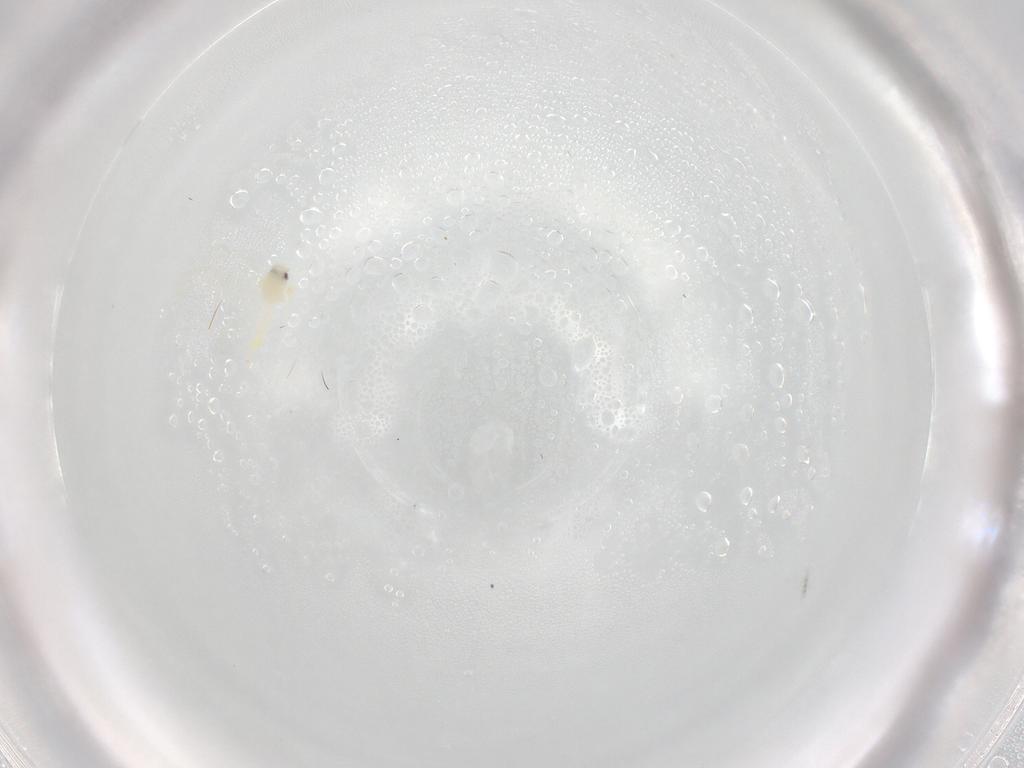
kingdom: Animalia
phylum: Arthropoda
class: Insecta
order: Hemiptera
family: Aleyrodidae
